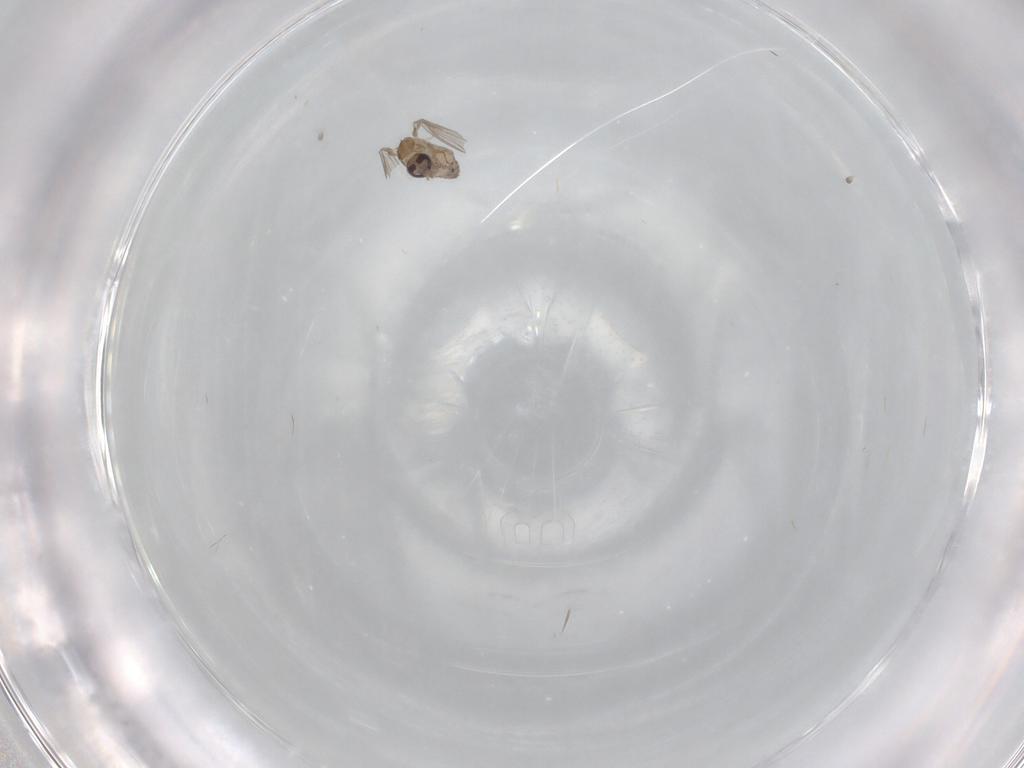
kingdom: Animalia
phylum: Arthropoda
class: Insecta
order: Diptera
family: Psychodidae
